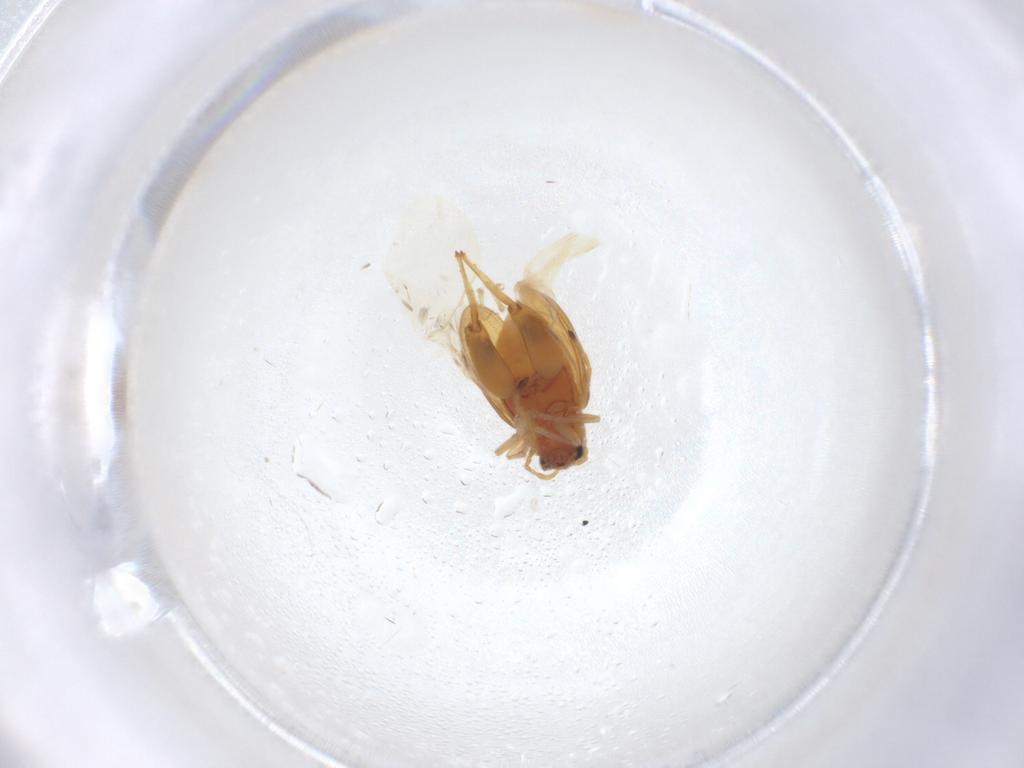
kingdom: Animalia
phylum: Arthropoda
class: Insecta
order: Coleoptera
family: Chrysomelidae
